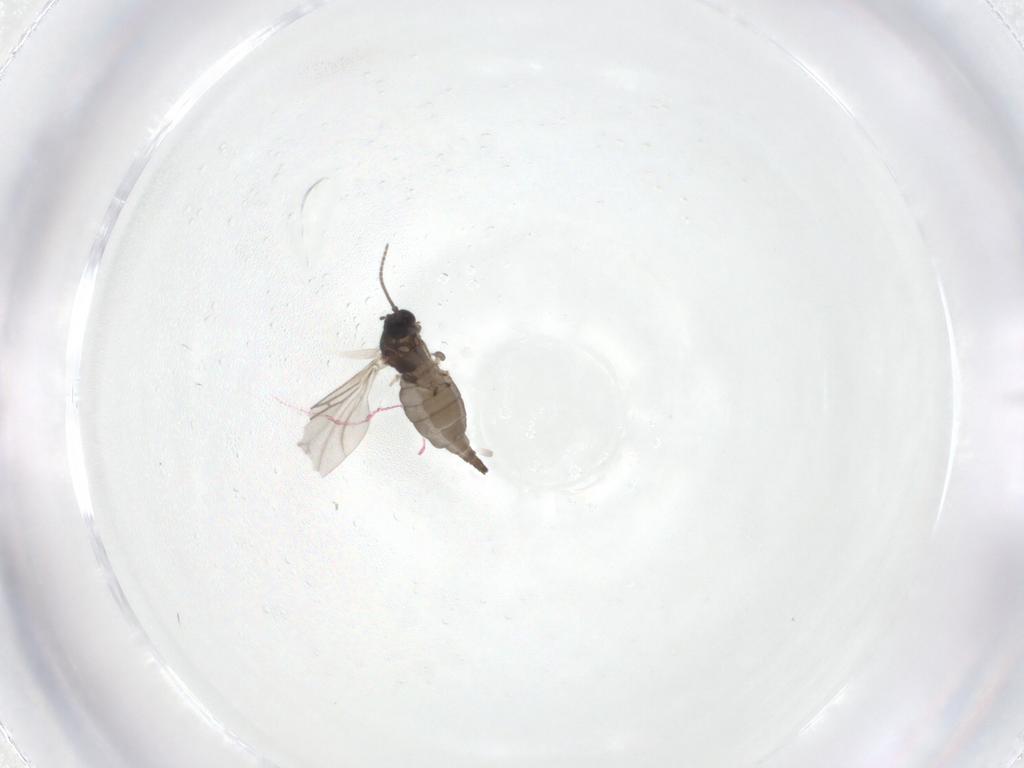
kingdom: Animalia
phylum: Arthropoda
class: Insecta
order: Diptera
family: Sciaridae
